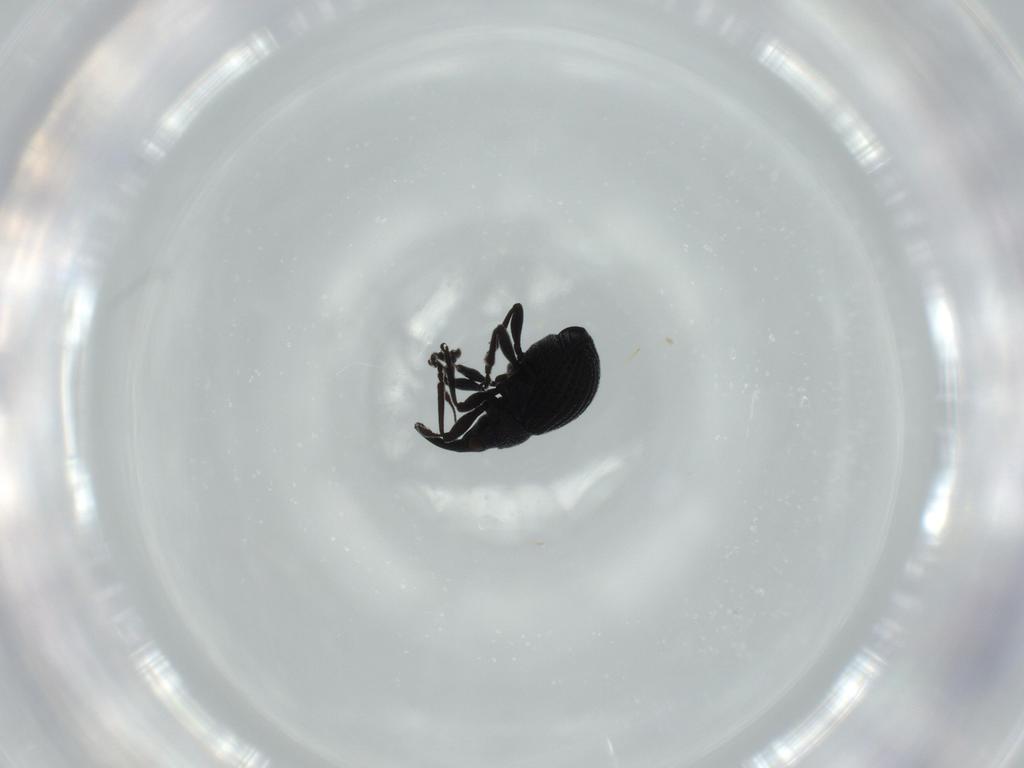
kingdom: Animalia
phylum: Arthropoda
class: Insecta
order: Coleoptera
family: Brentidae
